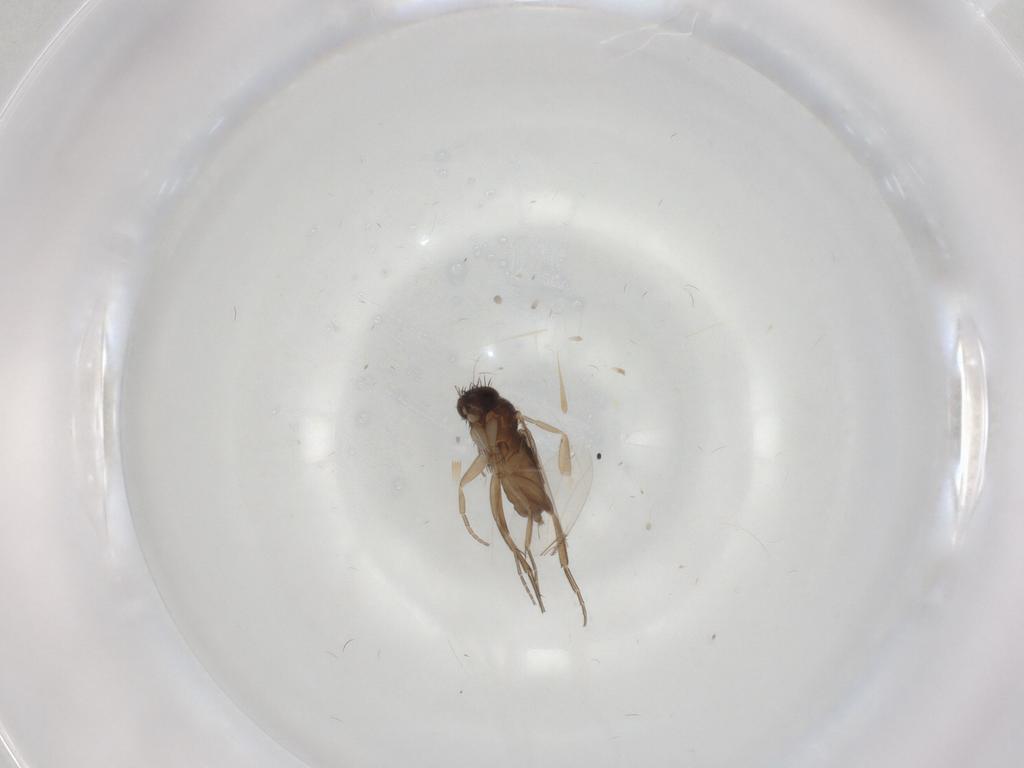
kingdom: Animalia
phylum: Arthropoda
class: Insecta
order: Diptera
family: Phoridae
